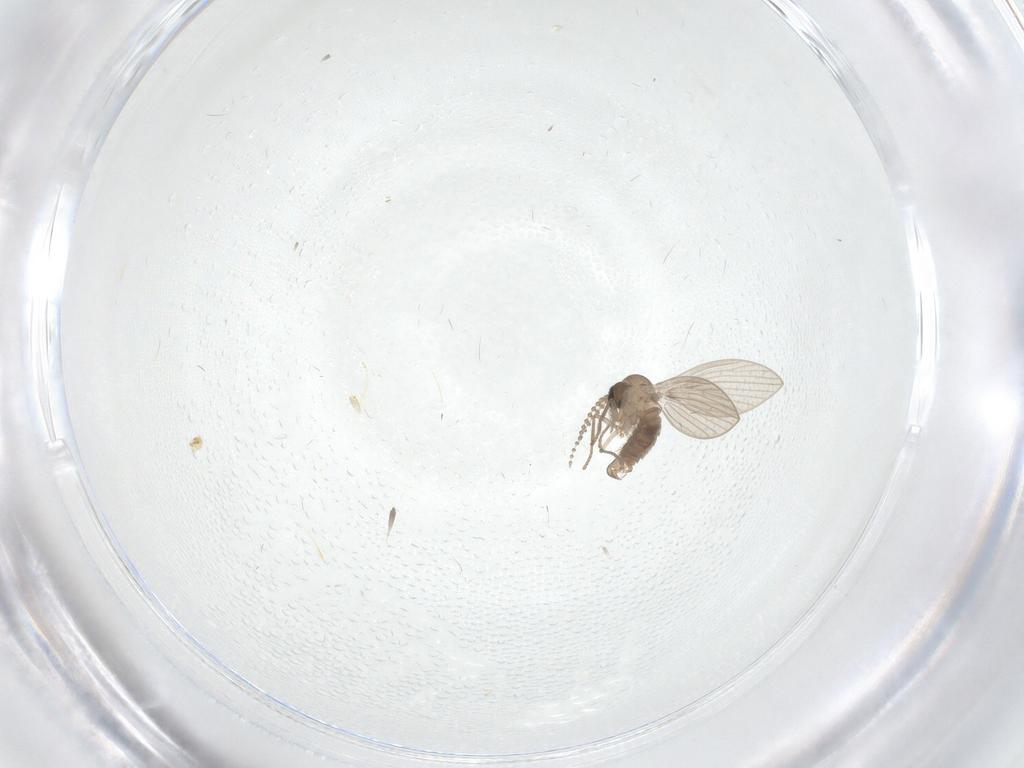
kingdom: Animalia
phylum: Arthropoda
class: Insecta
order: Diptera
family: Psychodidae
